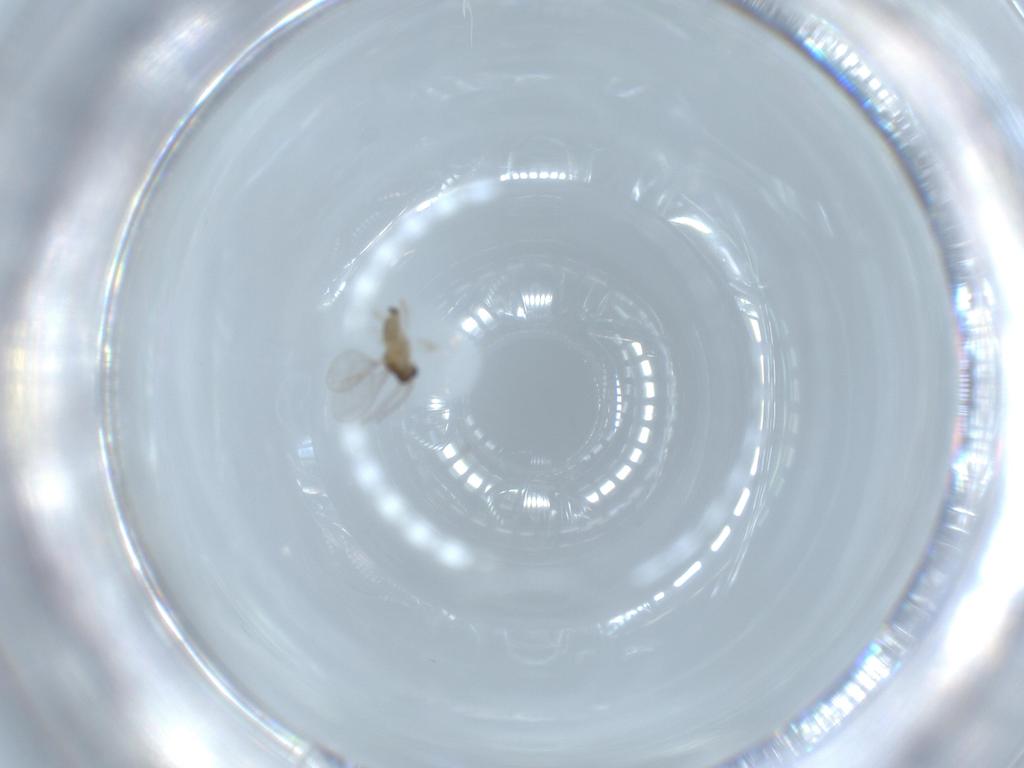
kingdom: Animalia
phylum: Arthropoda
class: Insecta
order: Diptera
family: Cecidomyiidae
